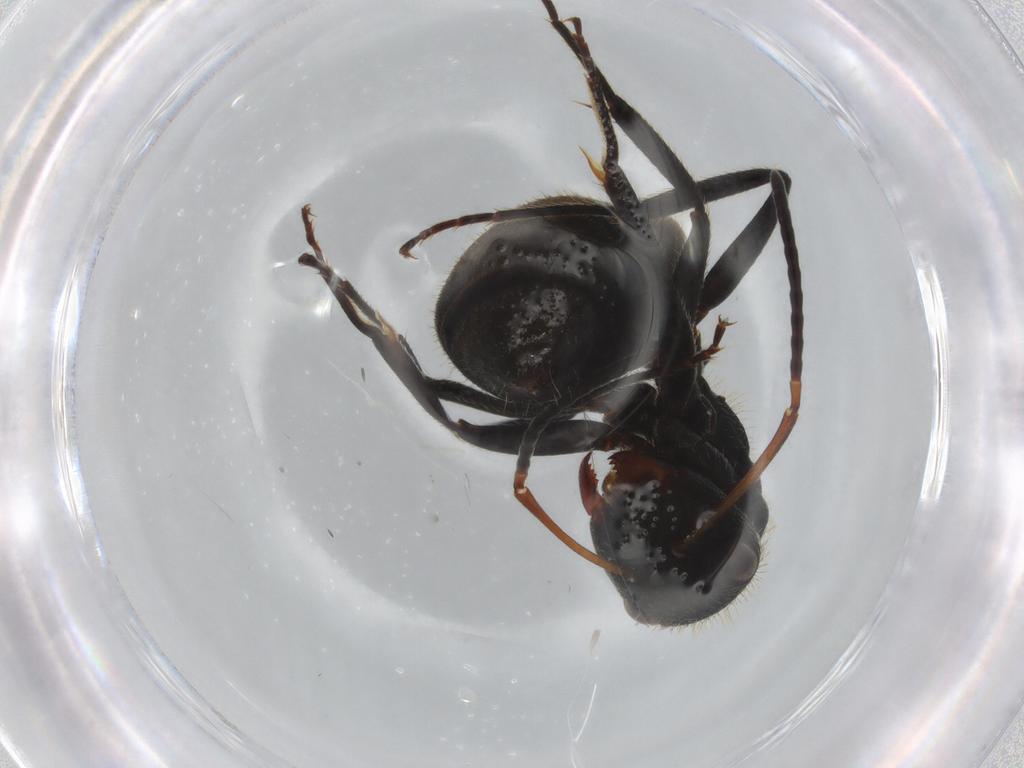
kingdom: Animalia
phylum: Arthropoda
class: Insecta
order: Hymenoptera
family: Formicidae
